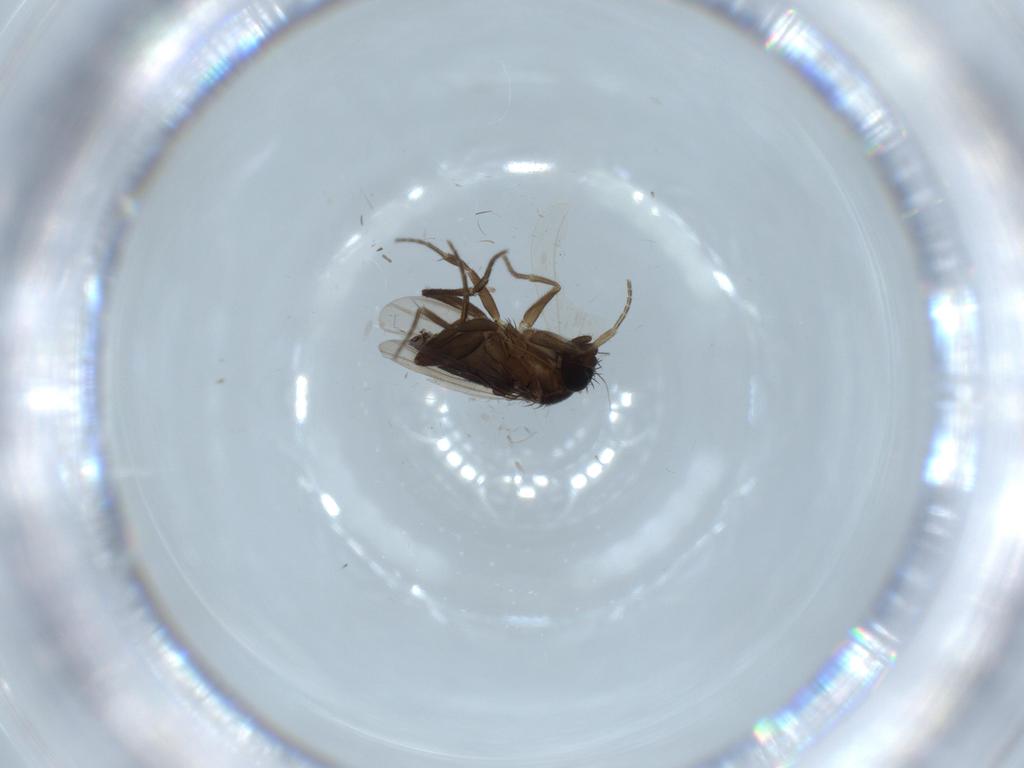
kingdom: Animalia
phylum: Arthropoda
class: Insecta
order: Diptera
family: Phoridae
